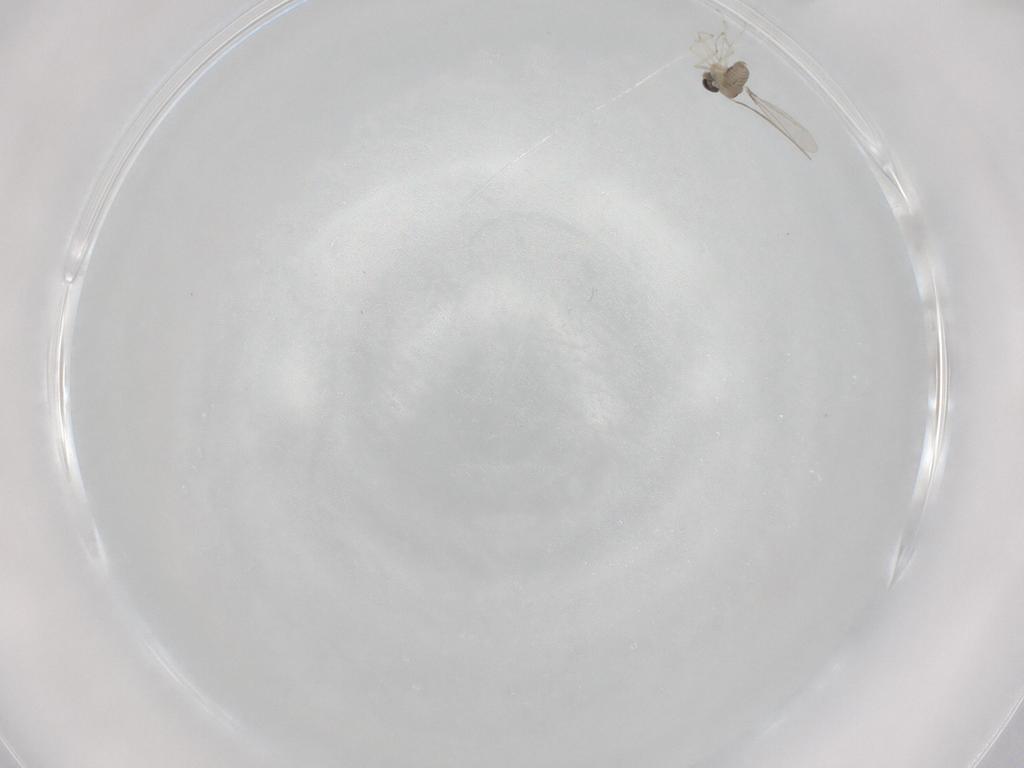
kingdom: Animalia
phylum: Arthropoda
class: Insecta
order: Diptera
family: Cecidomyiidae
